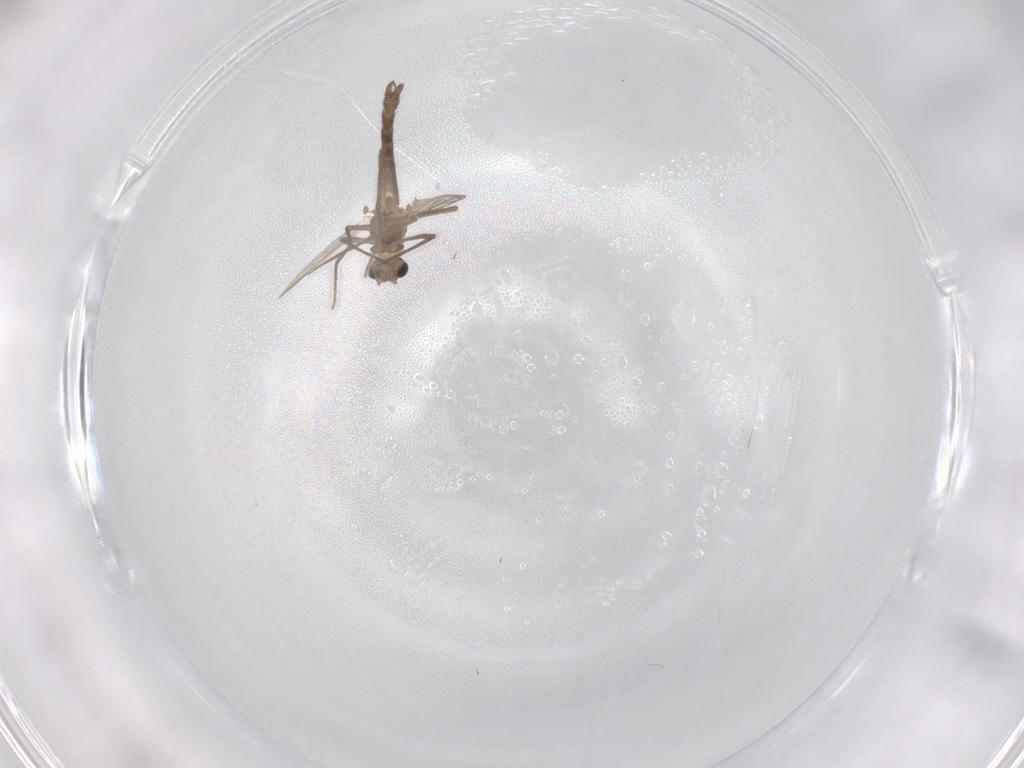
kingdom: Animalia
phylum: Arthropoda
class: Insecta
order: Diptera
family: Chironomidae
